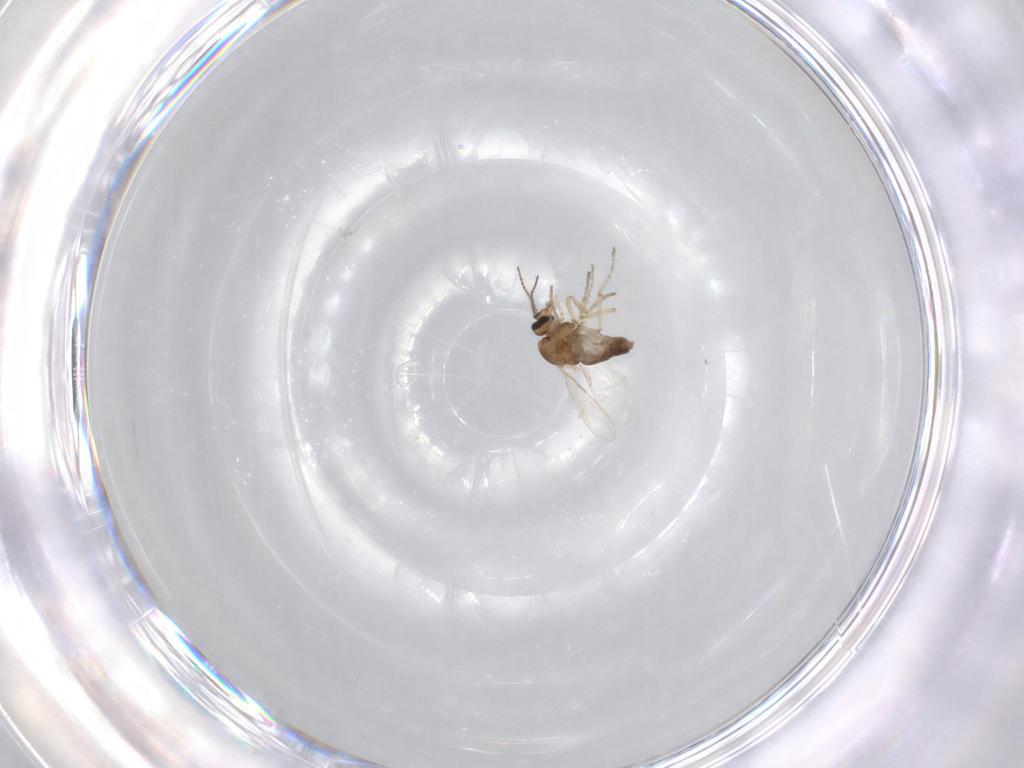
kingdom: Animalia
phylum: Arthropoda
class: Insecta
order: Diptera
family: Ceratopogonidae
